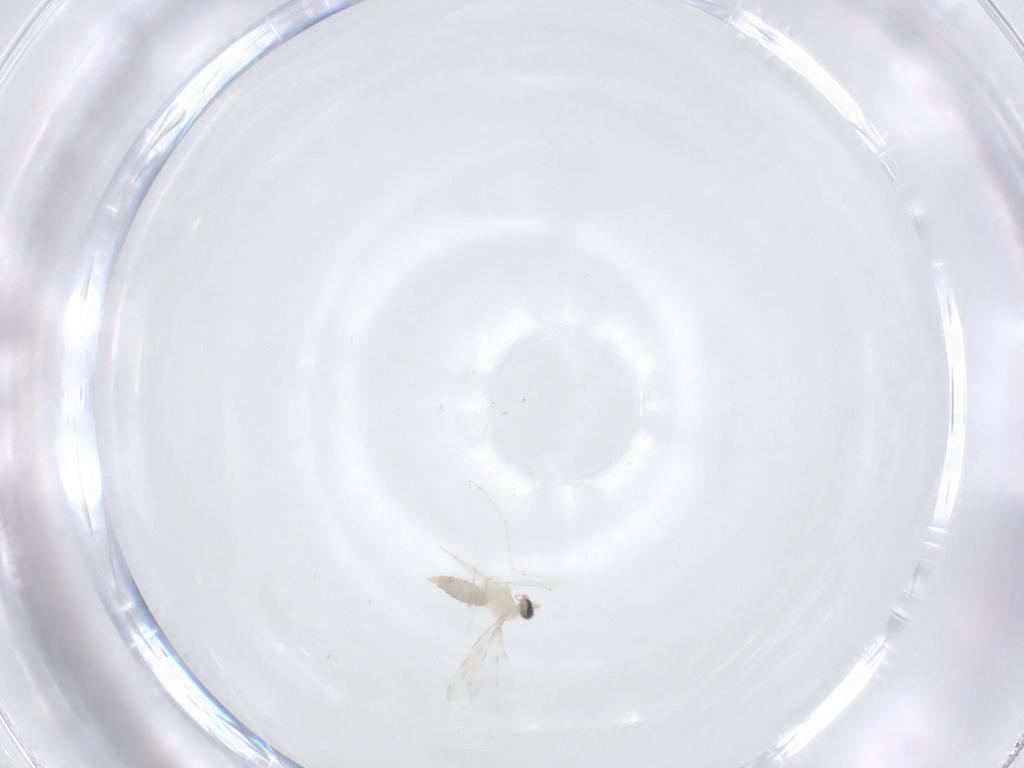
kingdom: Animalia
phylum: Arthropoda
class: Insecta
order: Diptera
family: Cecidomyiidae
